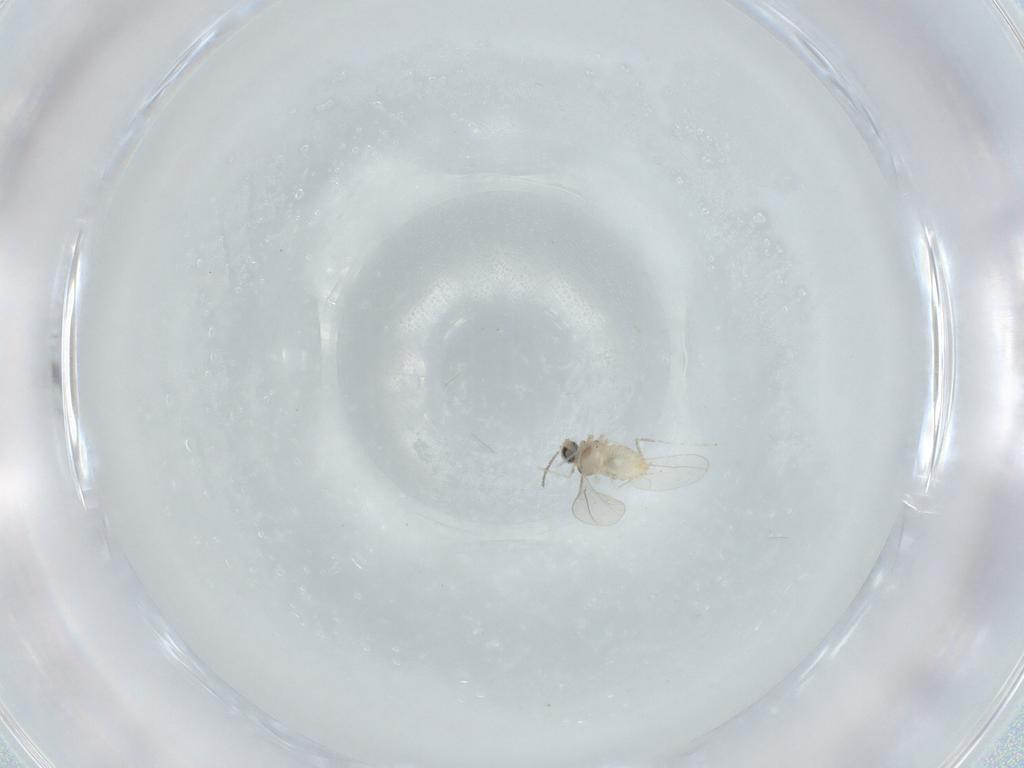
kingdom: Animalia
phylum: Arthropoda
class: Insecta
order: Diptera
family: Cecidomyiidae
